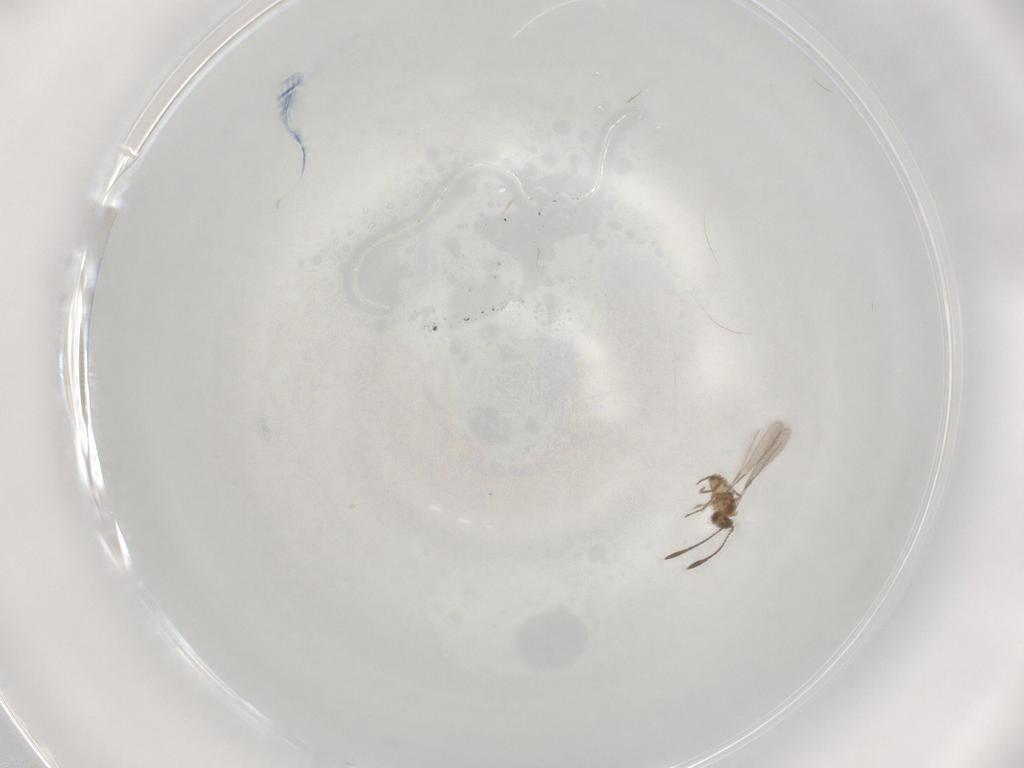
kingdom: Animalia
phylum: Arthropoda
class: Insecta
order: Hymenoptera
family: Mymaridae
